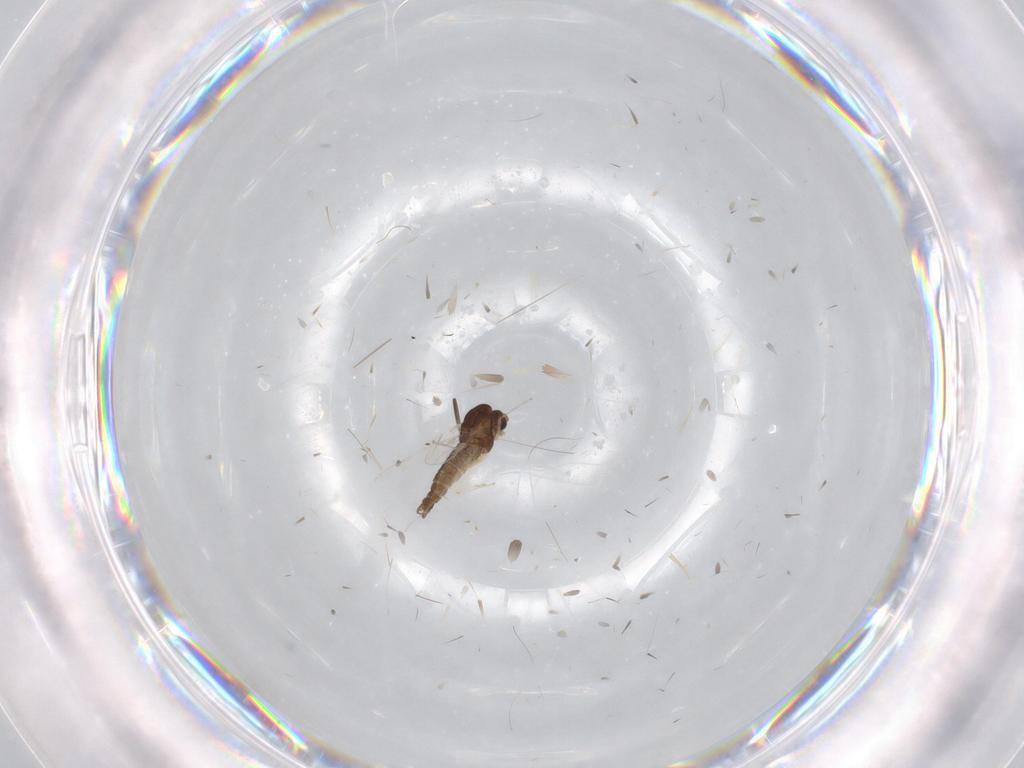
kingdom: Animalia
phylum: Arthropoda
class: Insecta
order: Diptera
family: Chironomidae
